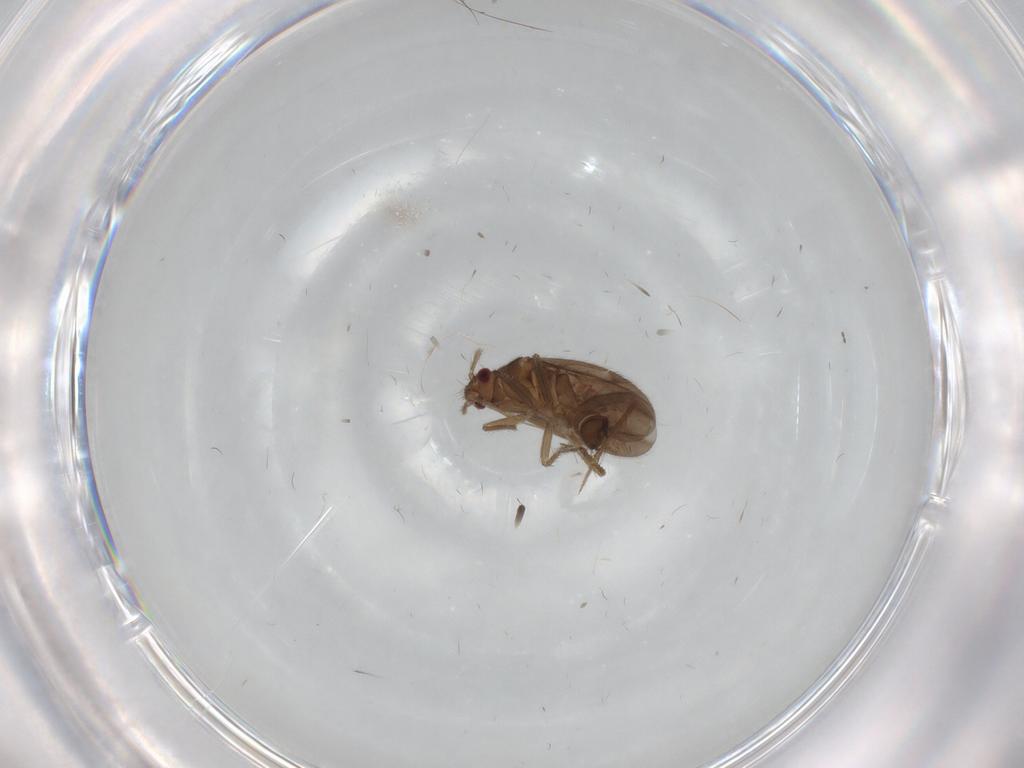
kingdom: Animalia
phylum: Arthropoda
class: Insecta
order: Hemiptera
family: Ceratocombidae
